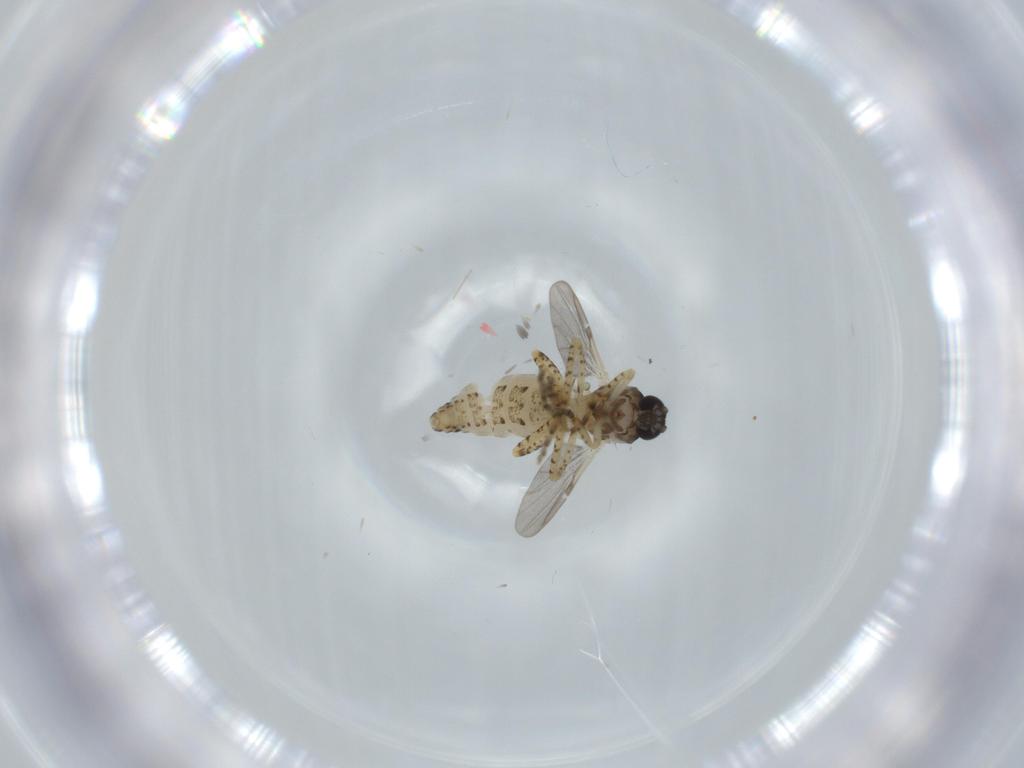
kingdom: Animalia
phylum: Arthropoda
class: Insecta
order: Diptera
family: Ceratopogonidae
